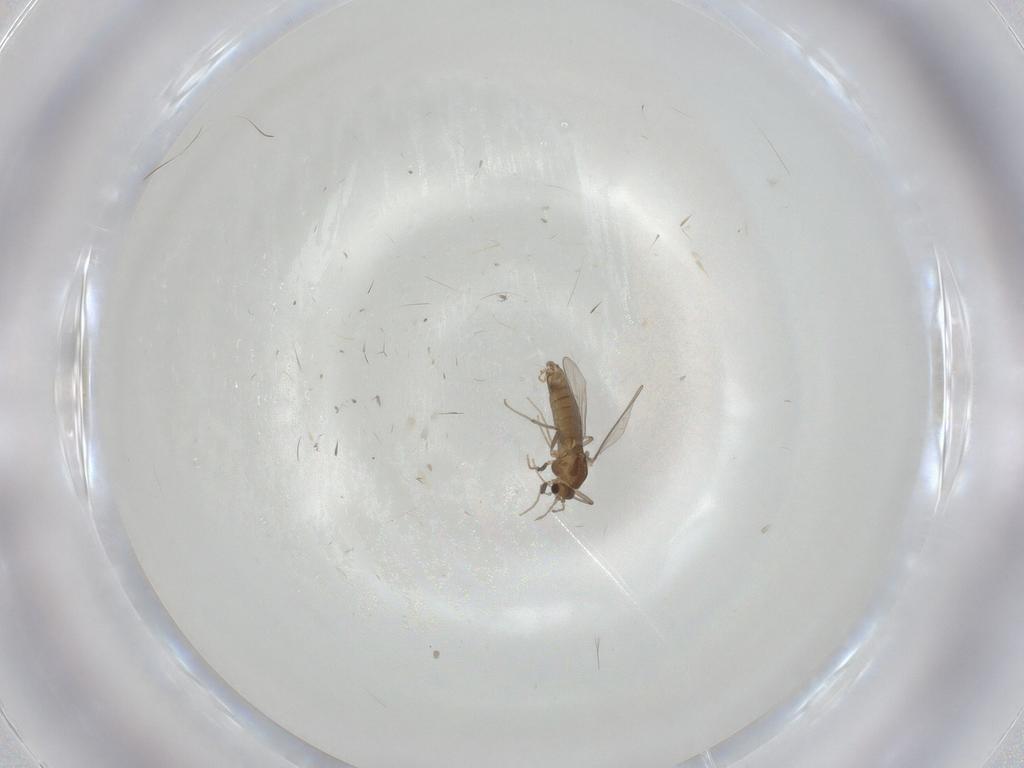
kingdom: Animalia
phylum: Arthropoda
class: Insecta
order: Diptera
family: Chironomidae
